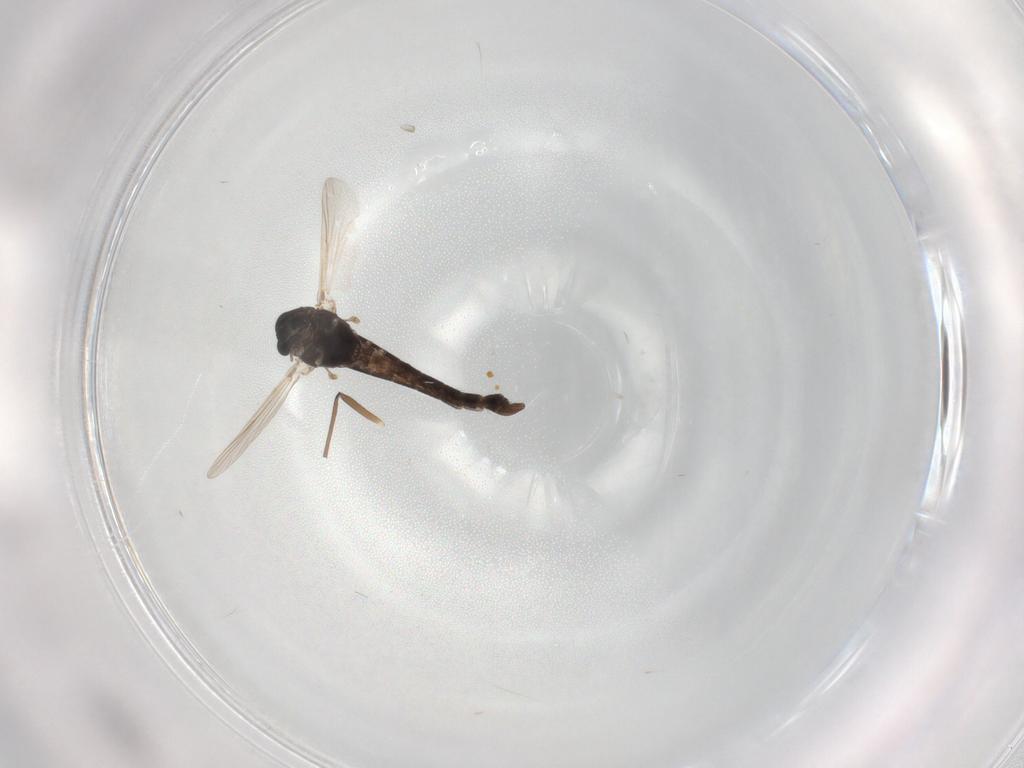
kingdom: Animalia
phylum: Arthropoda
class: Insecta
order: Diptera
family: Chironomidae
